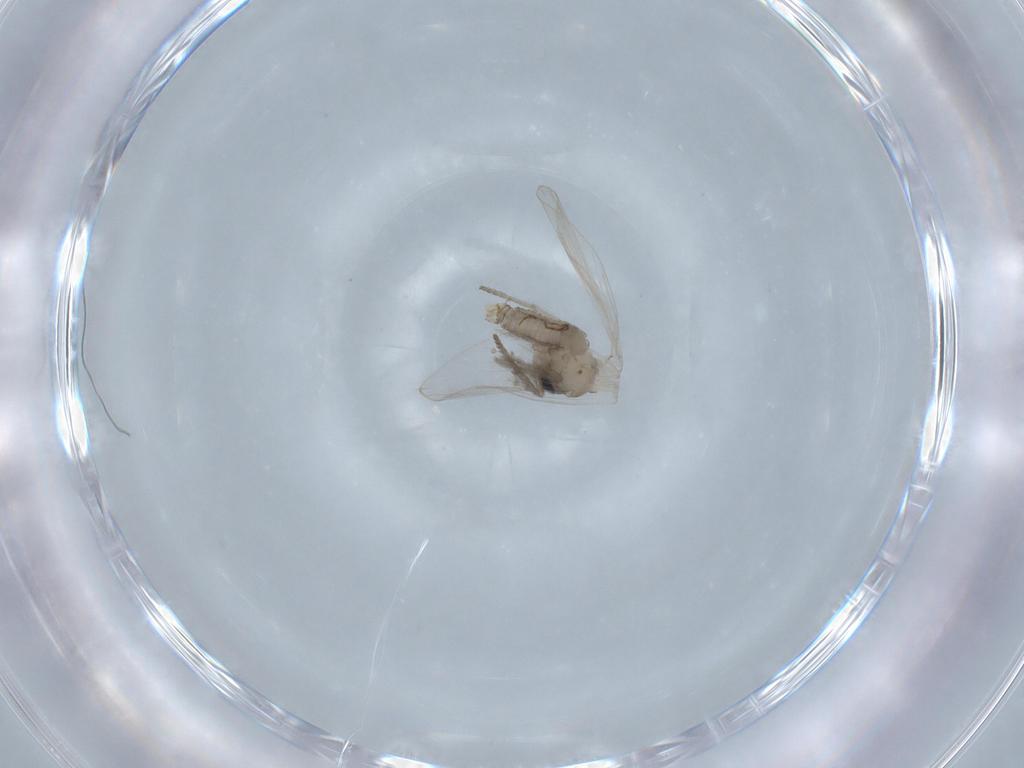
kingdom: Animalia
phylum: Arthropoda
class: Insecta
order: Diptera
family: Psychodidae
